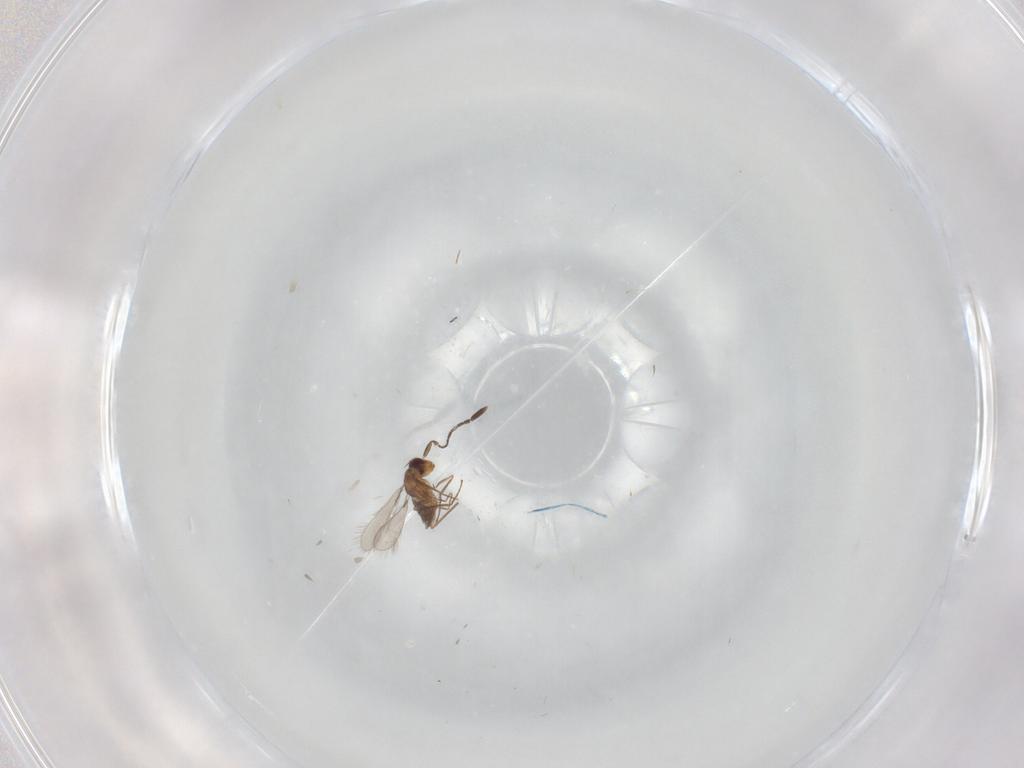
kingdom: Animalia
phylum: Arthropoda
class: Insecta
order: Hymenoptera
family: Mymaridae
